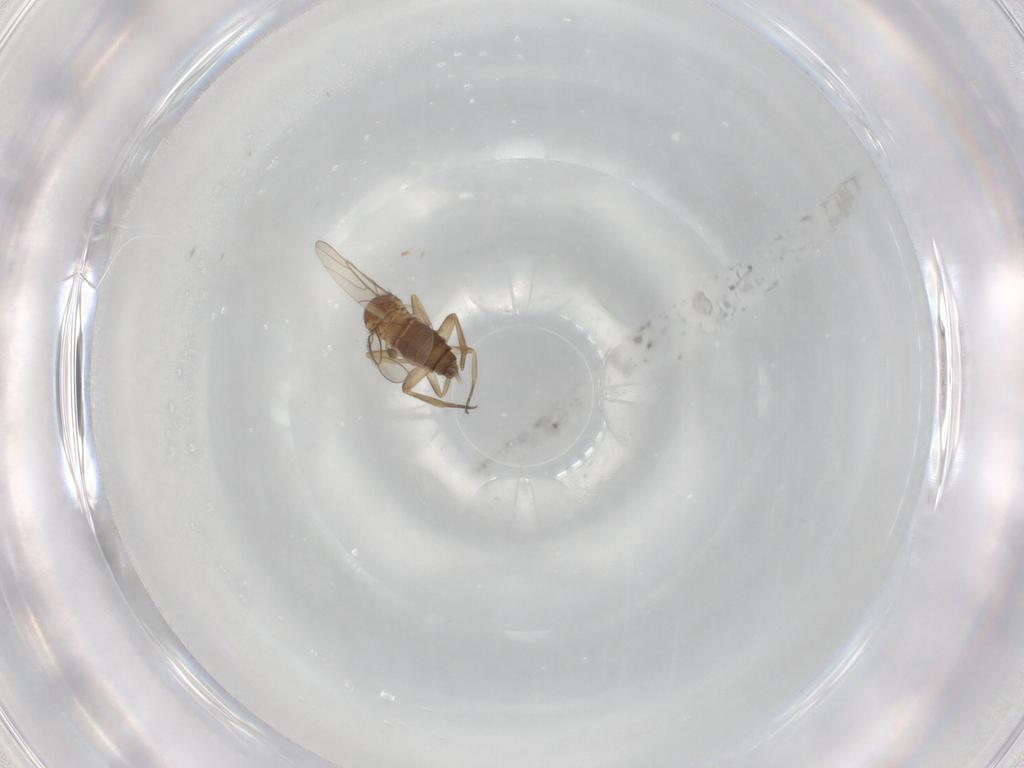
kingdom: Animalia
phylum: Arthropoda
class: Insecta
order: Diptera
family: Phoridae
